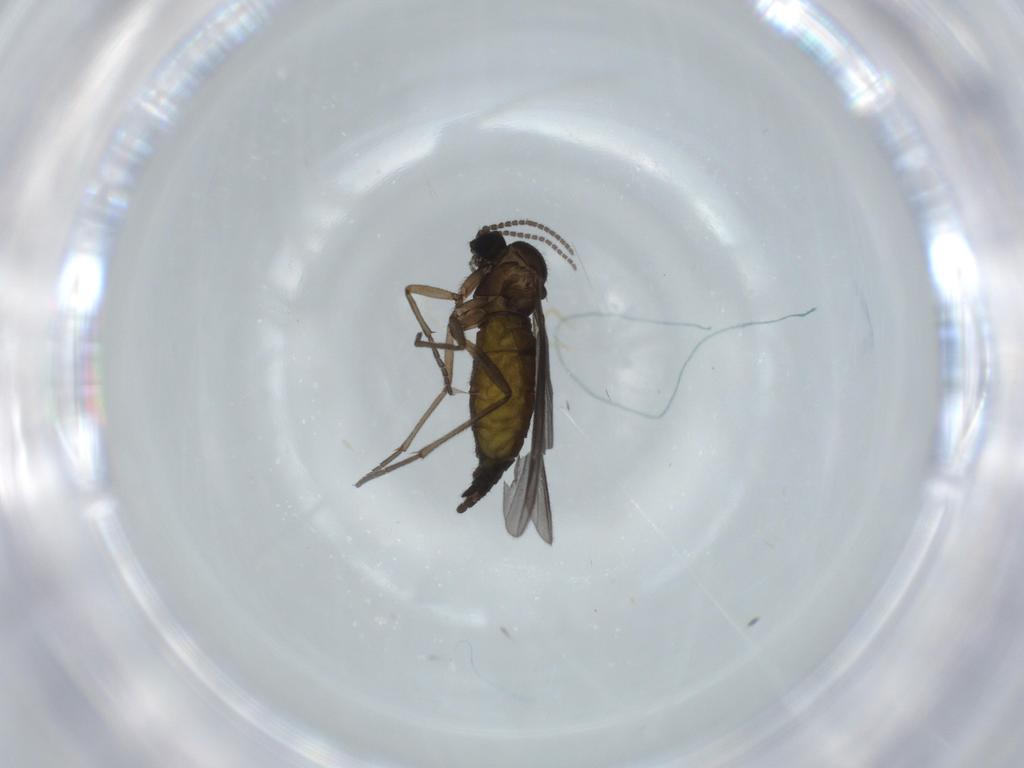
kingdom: Animalia
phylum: Arthropoda
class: Insecta
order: Diptera
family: Sciaridae
